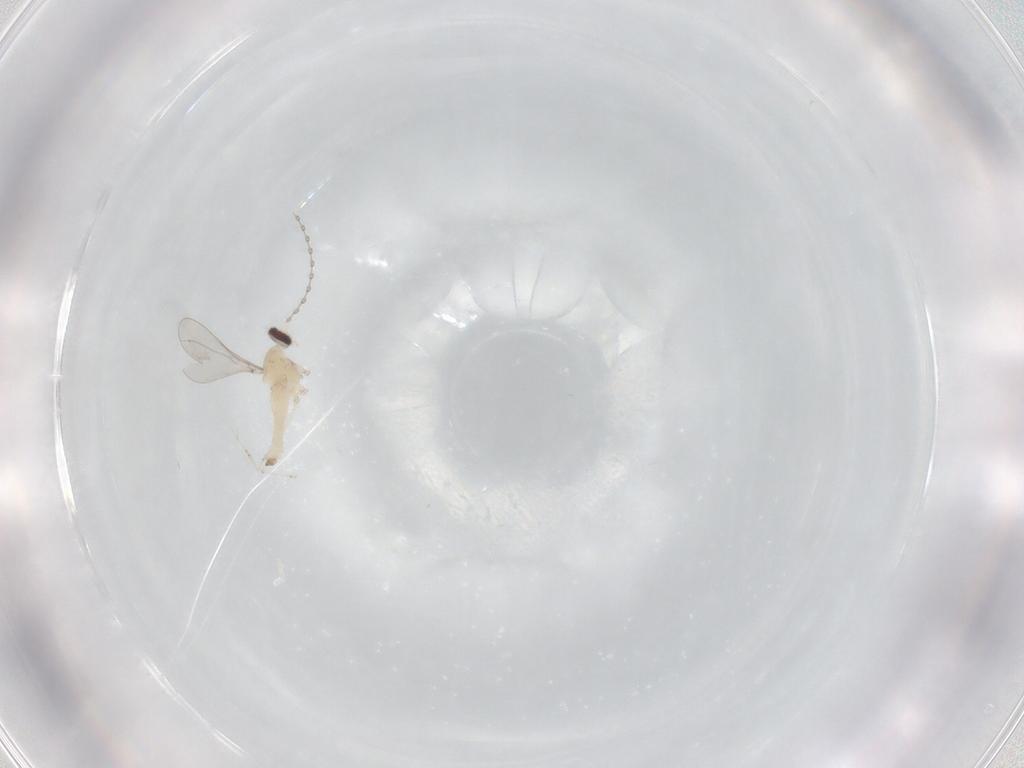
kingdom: Animalia
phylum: Arthropoda
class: Insecta
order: Diptera
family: Cecidomyiidae
